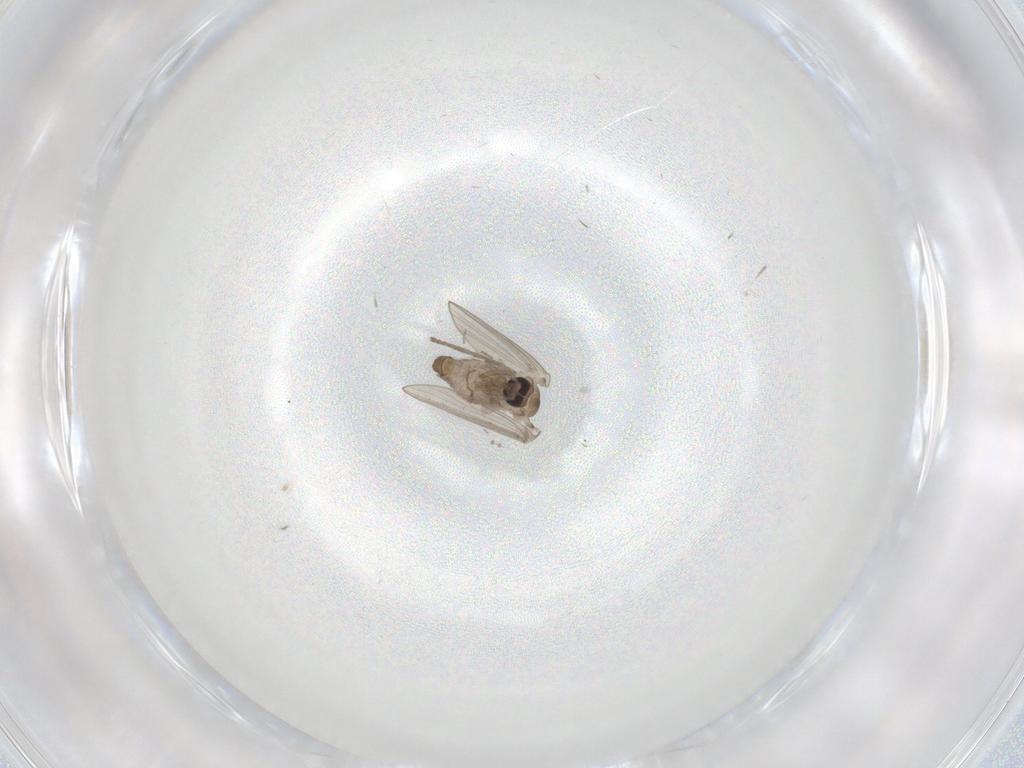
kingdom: Animalia
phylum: Arthropoda
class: Insecta
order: Diptera
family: Psychodidae
